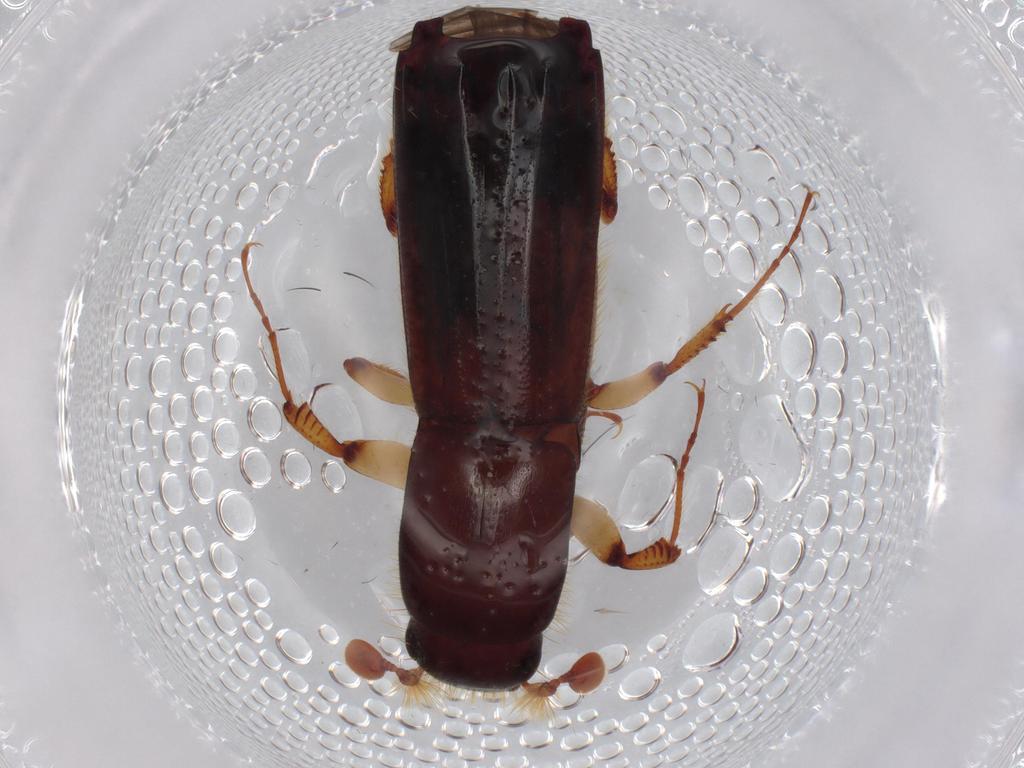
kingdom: Animalia
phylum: Arthropoda
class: Insecta
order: Coleoptera
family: Curculionidae
